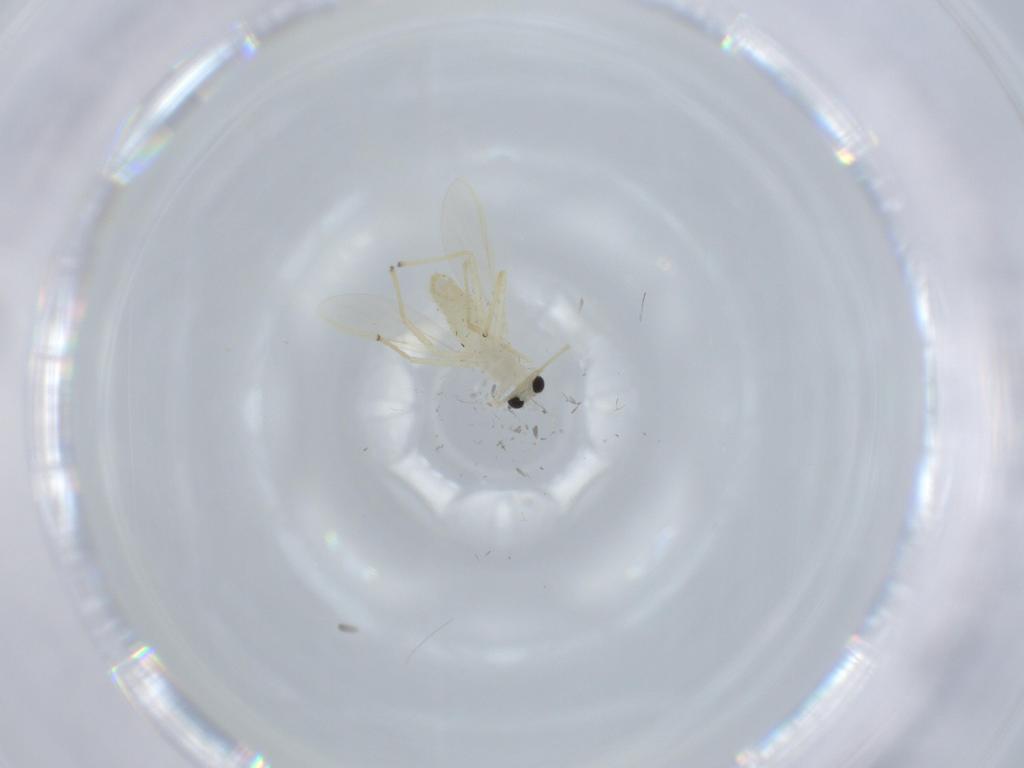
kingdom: Animalia
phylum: Arthropoda
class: Insecta
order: Diptera
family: Chironomidae
